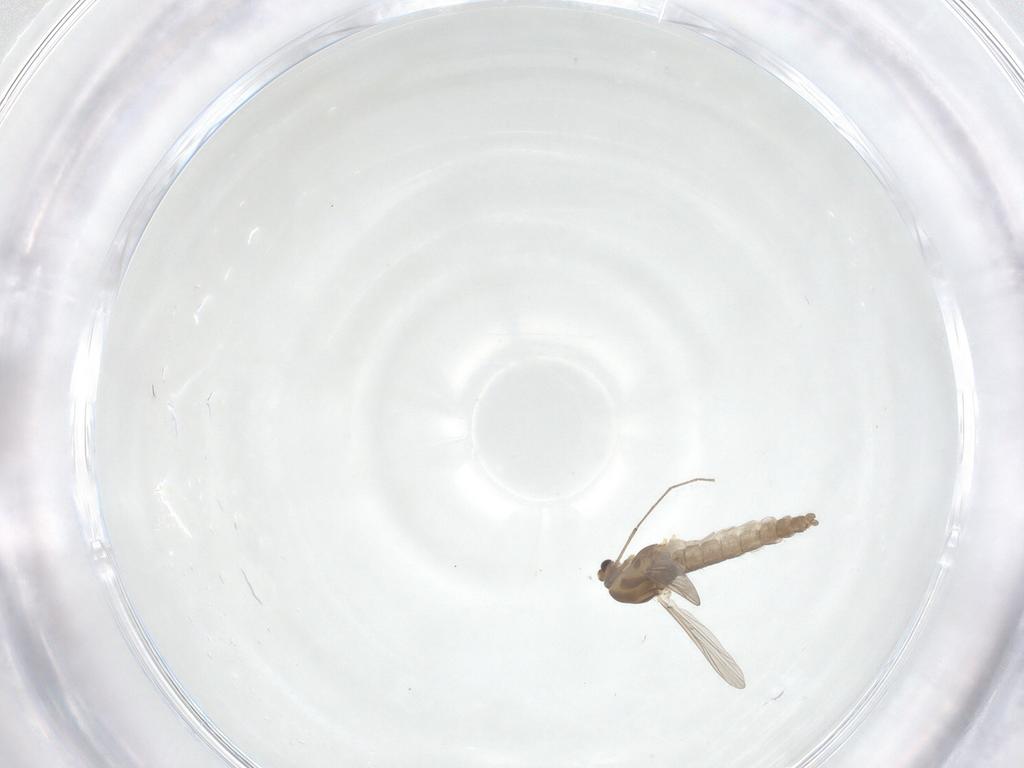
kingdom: Animalia
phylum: Arthropoda
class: Insecta
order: Diptera
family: Chironomidae
